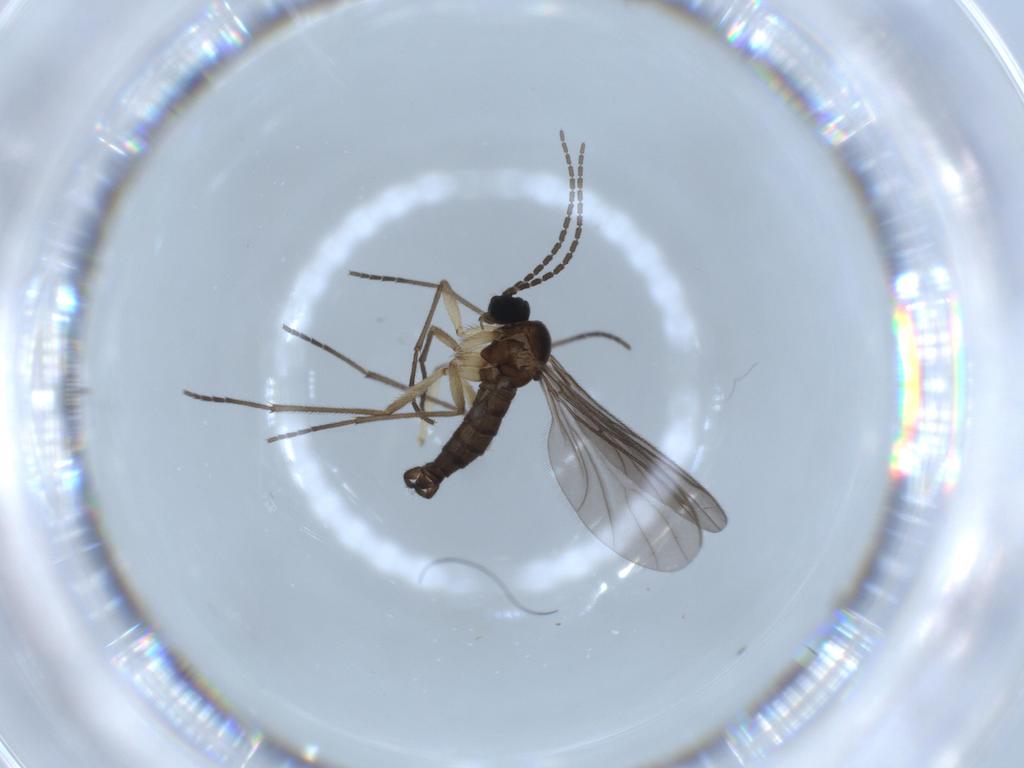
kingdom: Animalia
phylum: Arthropoda
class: Insecta
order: Diptera
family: Sciaridae
